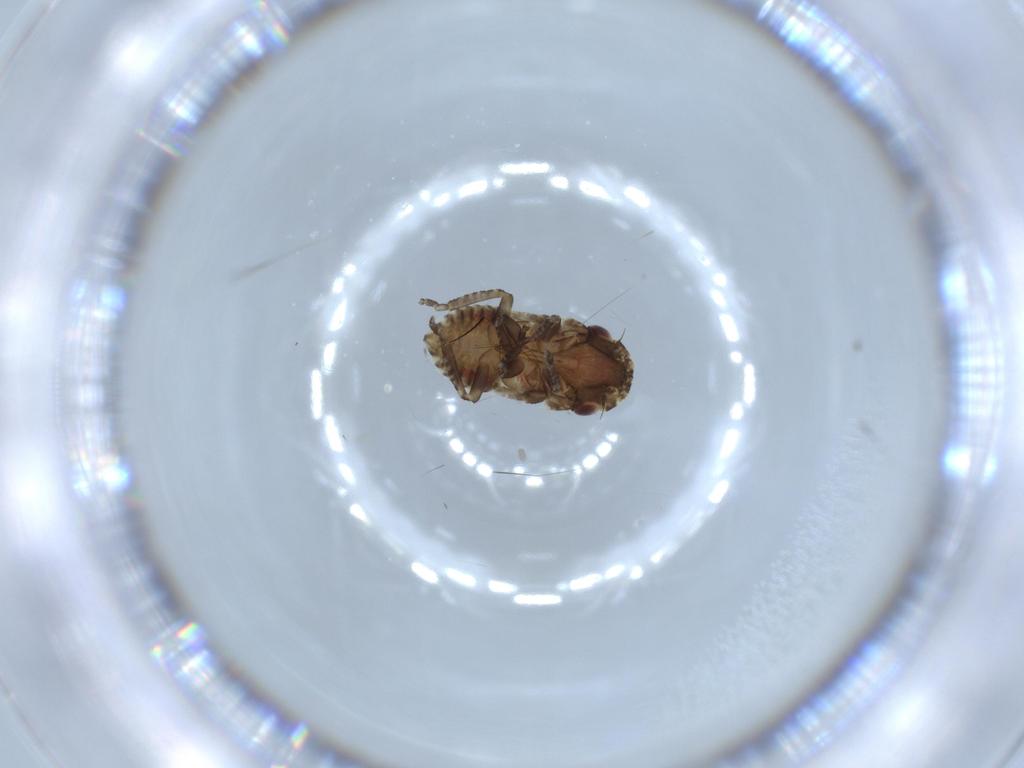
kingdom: Animalia
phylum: Arthropoda
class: Insecta
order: Hemiptera
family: Cicadellidae
